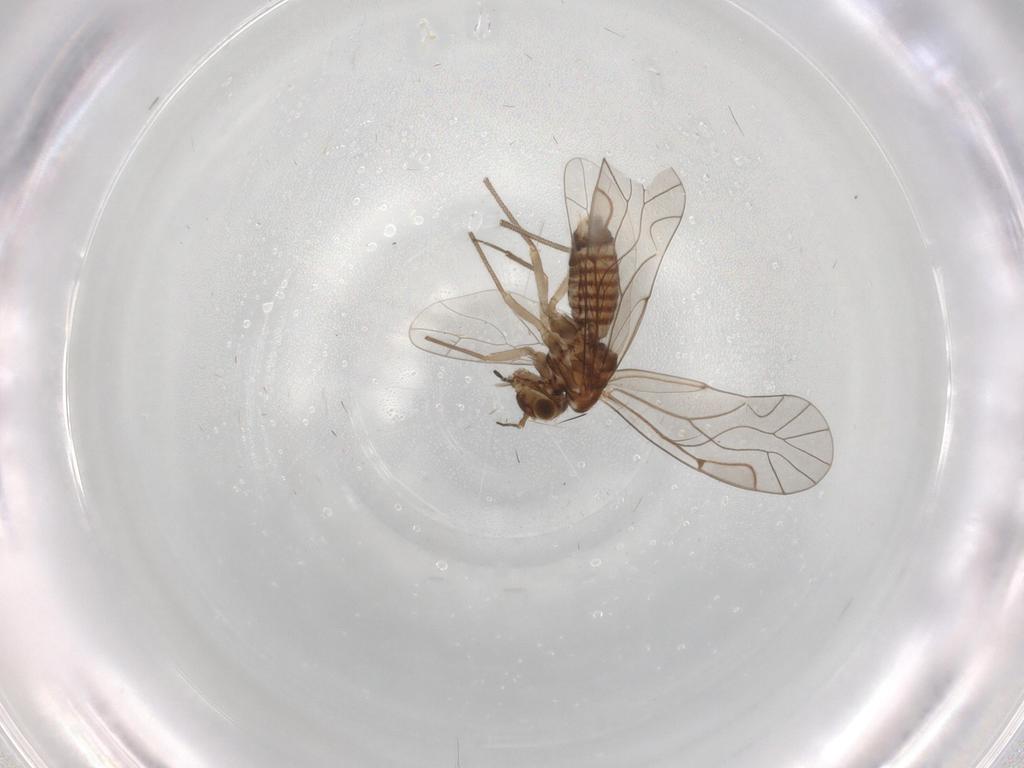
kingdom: Animalia
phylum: Arthropoda
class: Insecta
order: Psocodea
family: Lachesillidae
